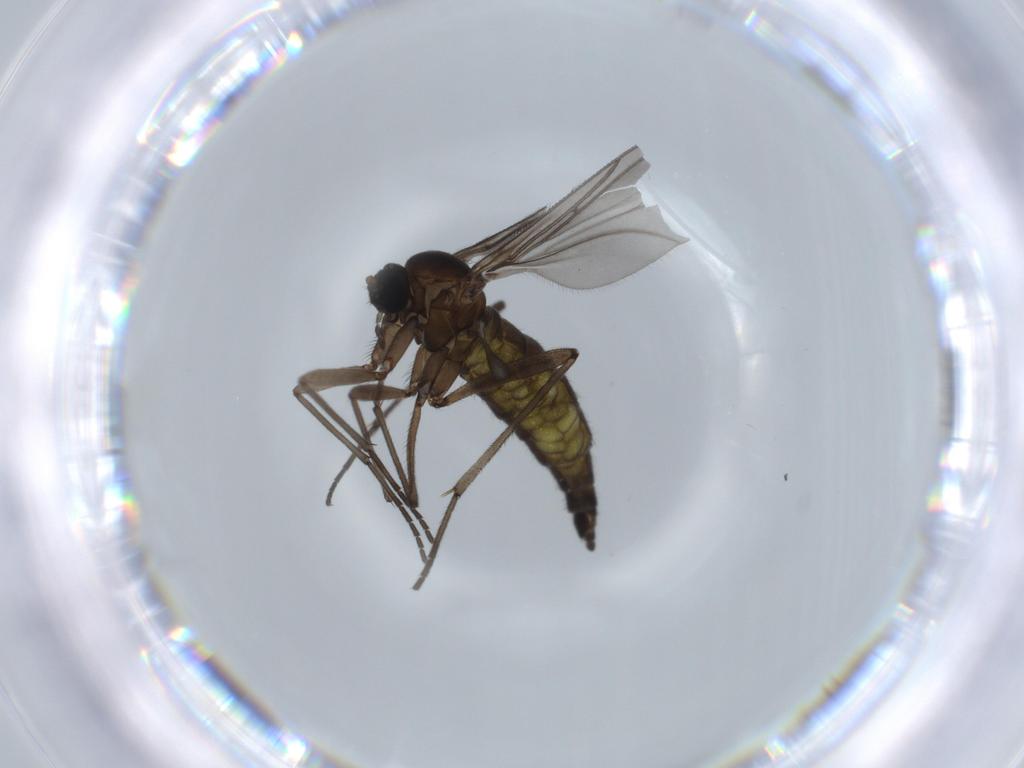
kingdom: Animalia
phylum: Arthropoda
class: Insecta
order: Diptera
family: Sciaridae
